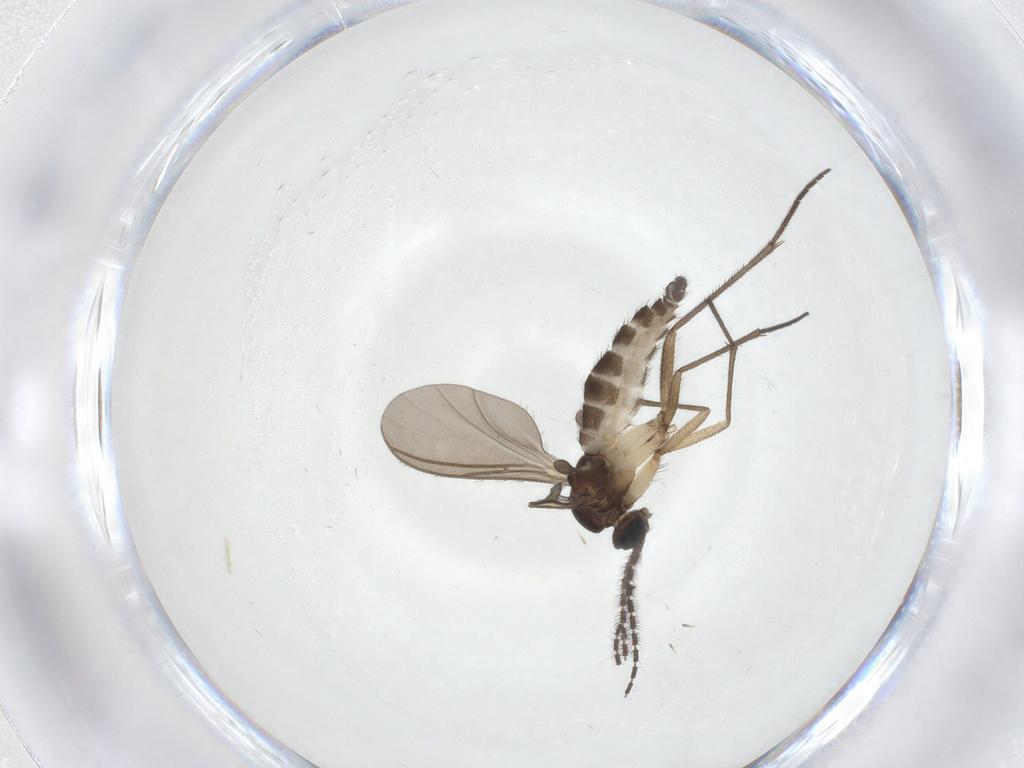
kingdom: Animalia
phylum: Arthropoda
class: Insecta
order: Diptera
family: Sciaridae
